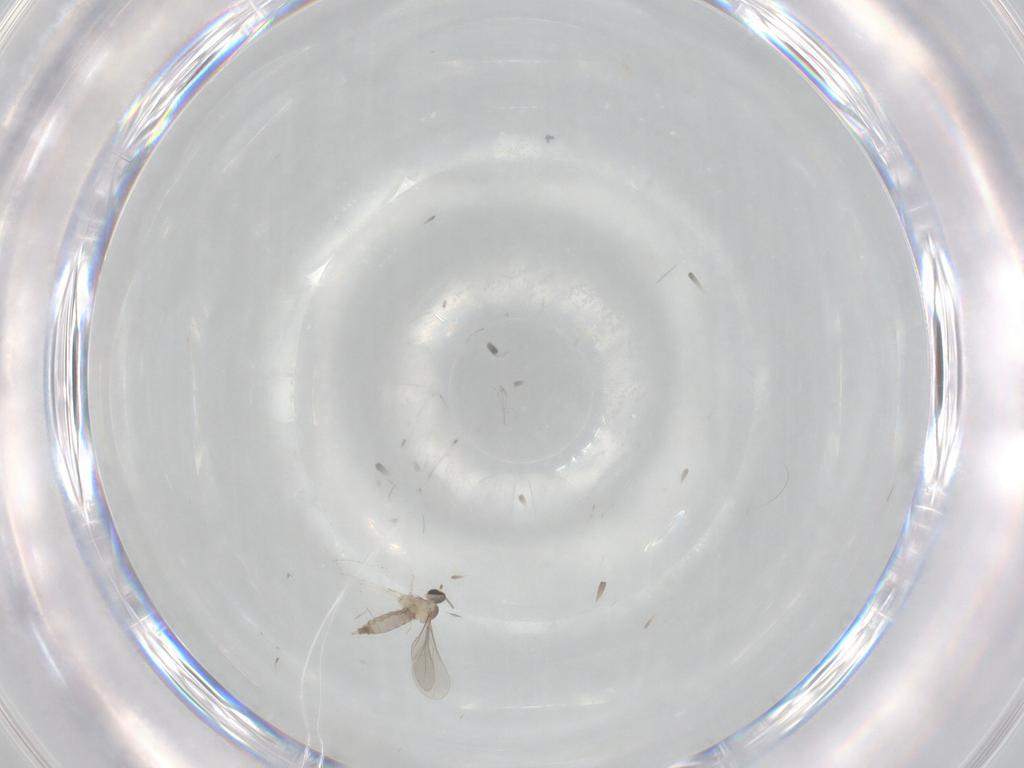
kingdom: Animalia
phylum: Arthropoda
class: Insecta
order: Diptera
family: Cecidomyiidae
